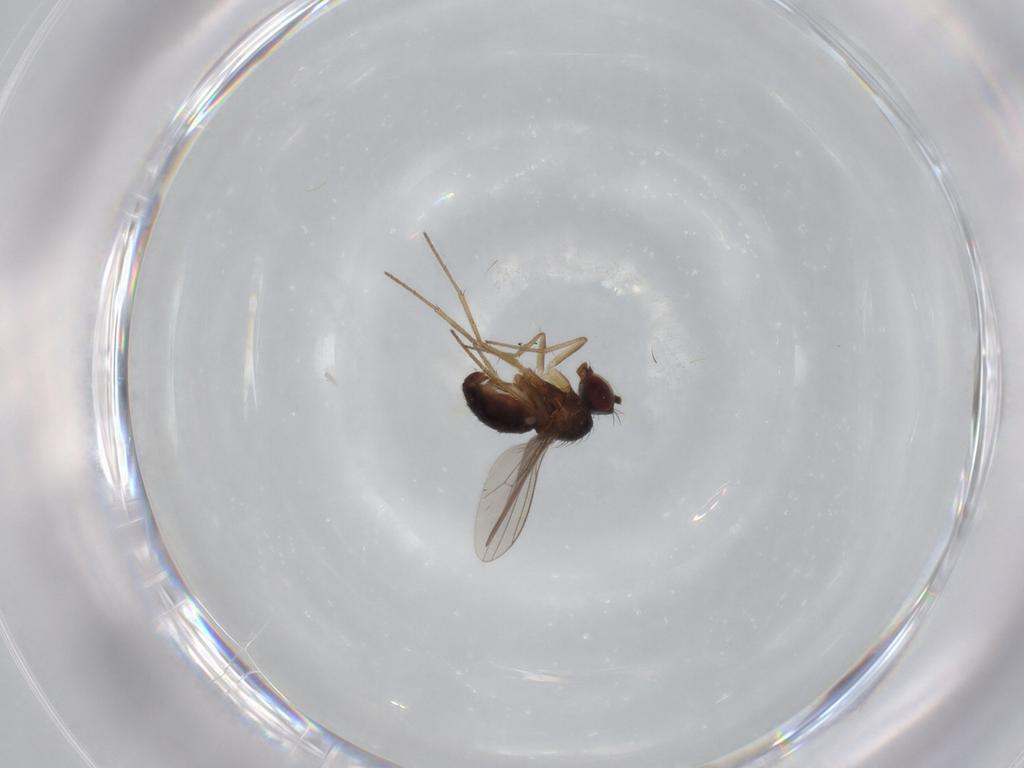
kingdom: Animalia
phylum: Arthropoda
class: Insecta
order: Diptera
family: Dolichopodidae
